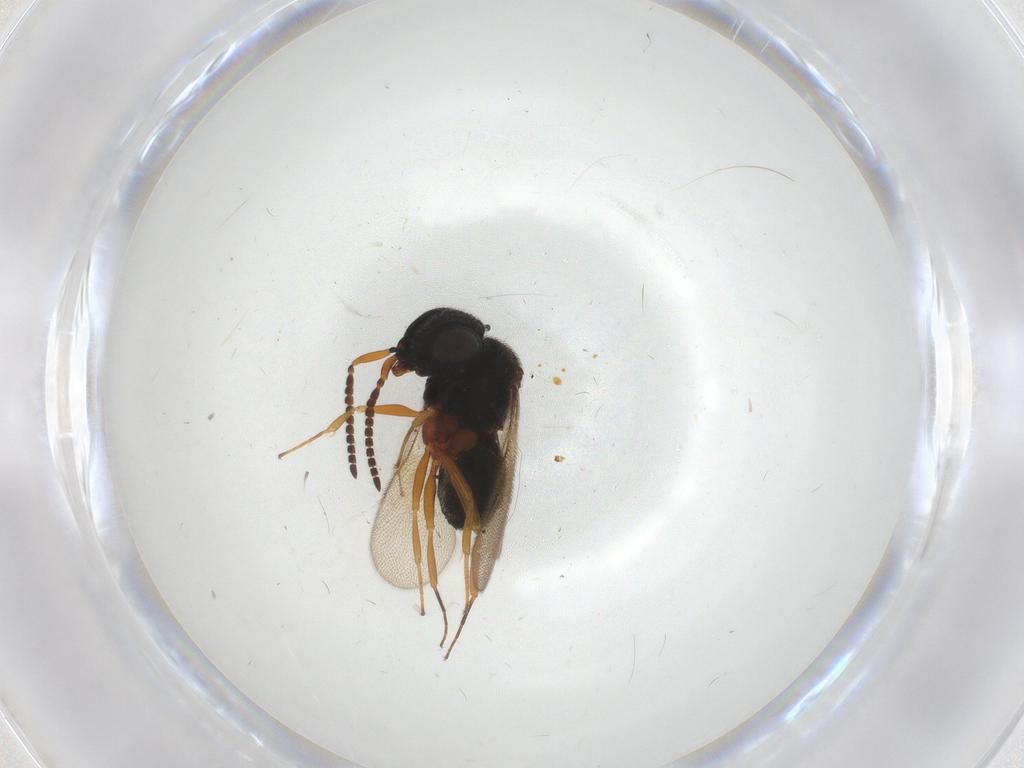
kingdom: Animalia
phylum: Arthropoda
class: Insecta
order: Hymenoptera
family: Scelionidae
